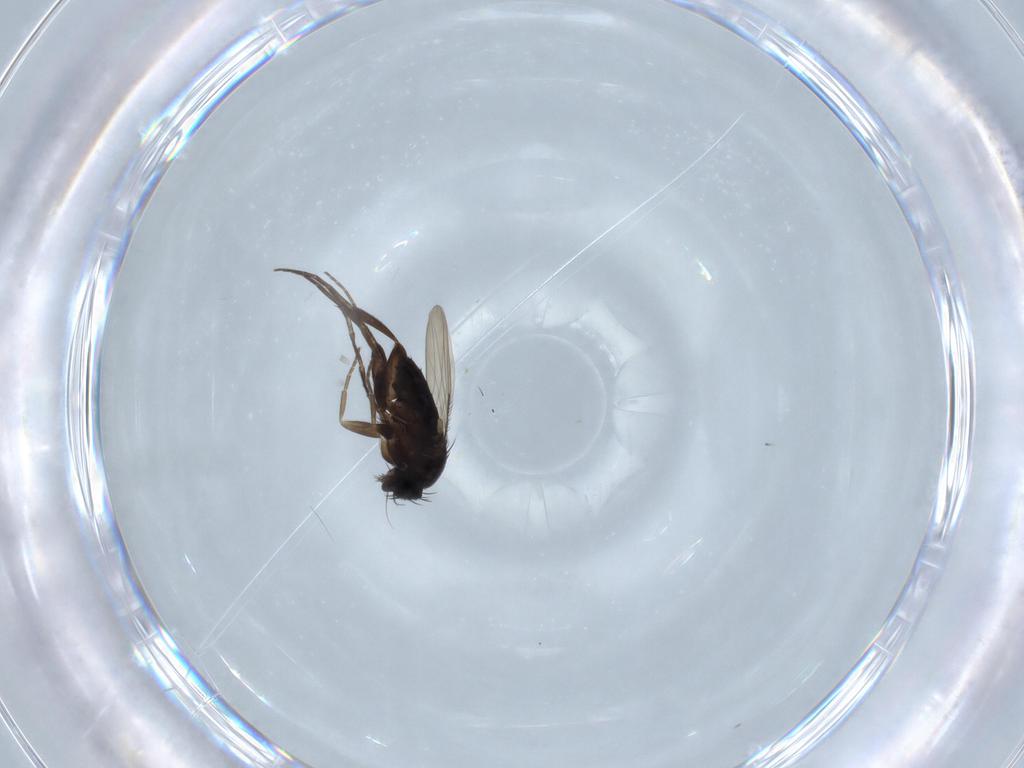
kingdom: Animalia
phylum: Arthropoda
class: Insecta
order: Diptera
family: Phoridae
